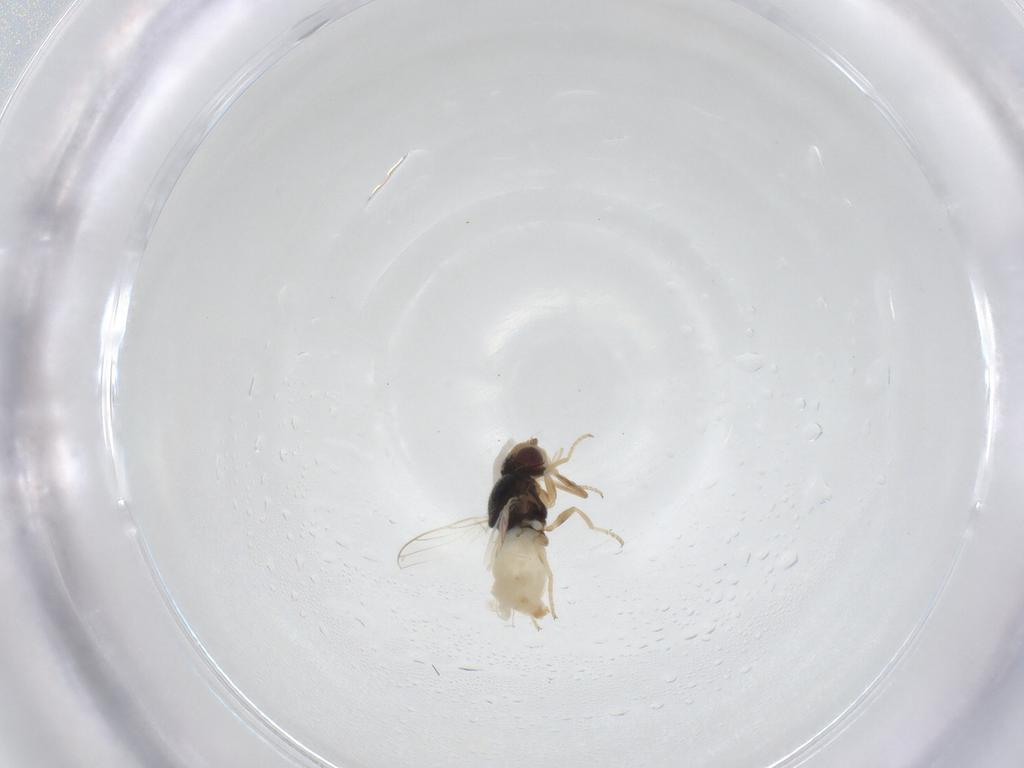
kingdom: Animalia
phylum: Arthropoda
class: Insecta
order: Diptera
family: Chloropidae
